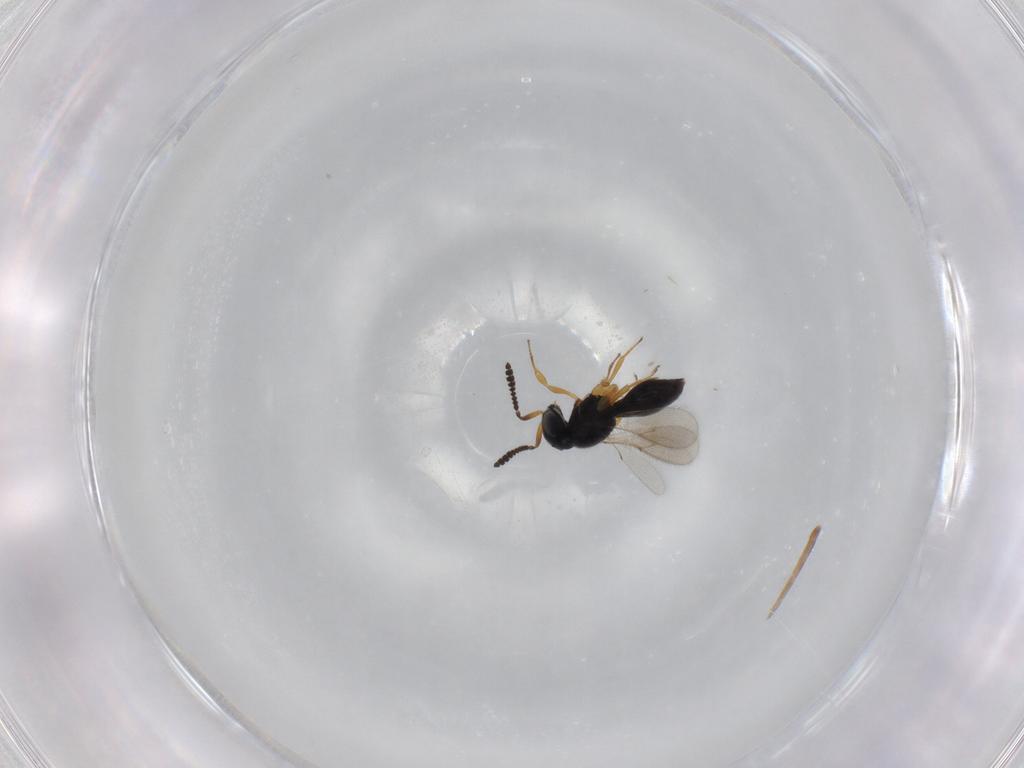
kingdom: Animalia
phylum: Arthropoda
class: Insecta
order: Hymenoptera
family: Scelionidae
